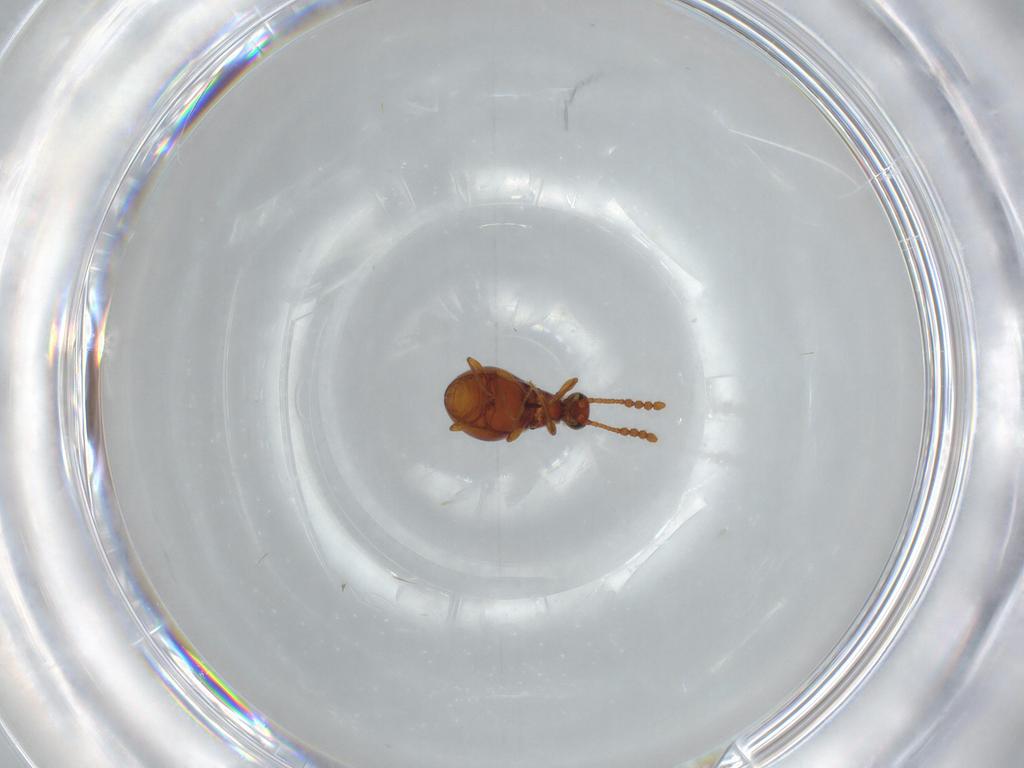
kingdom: Animalia
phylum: Arthropoda
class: Insecta
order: Coleoptera
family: Staphylinidae
